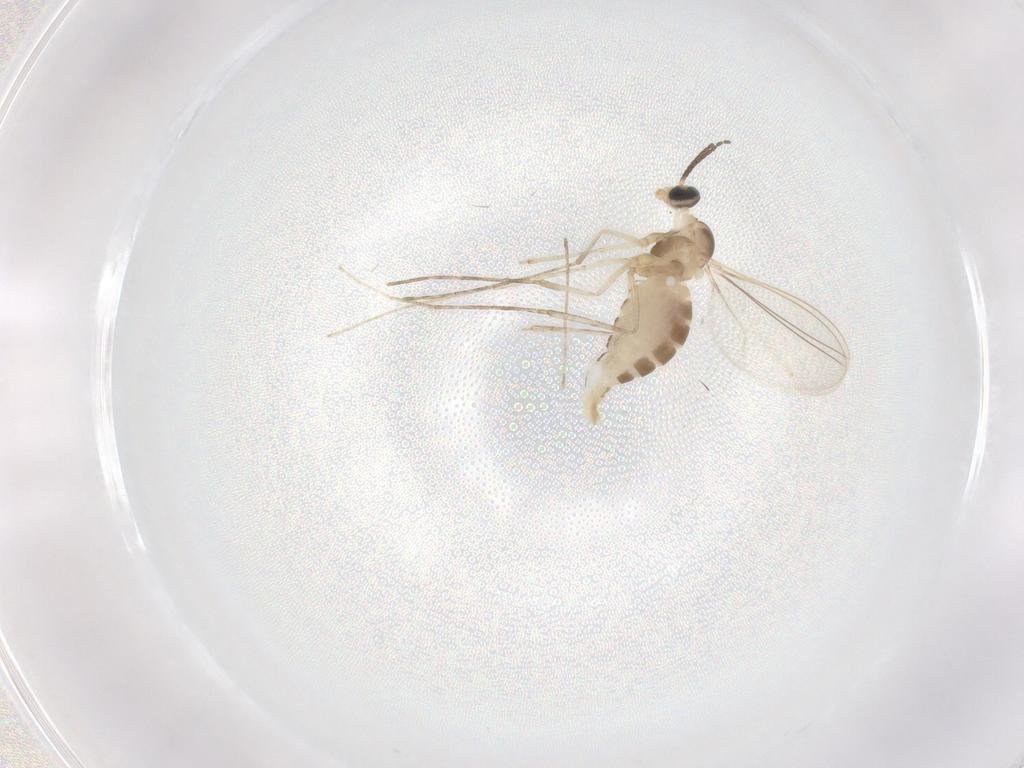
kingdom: Animalia
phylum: Arthropoda
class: Insecta
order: Diptera
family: Cecidomyiidae
